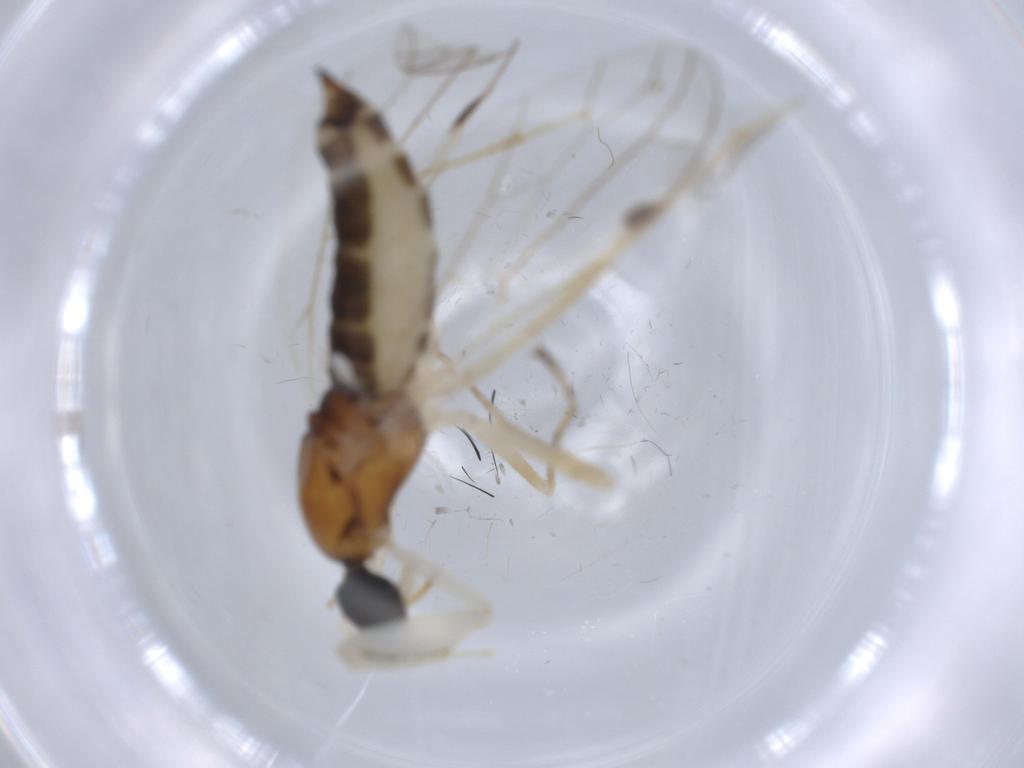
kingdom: Animalia
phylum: Arthropoda
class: Insecta
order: Diptera
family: Empididae
